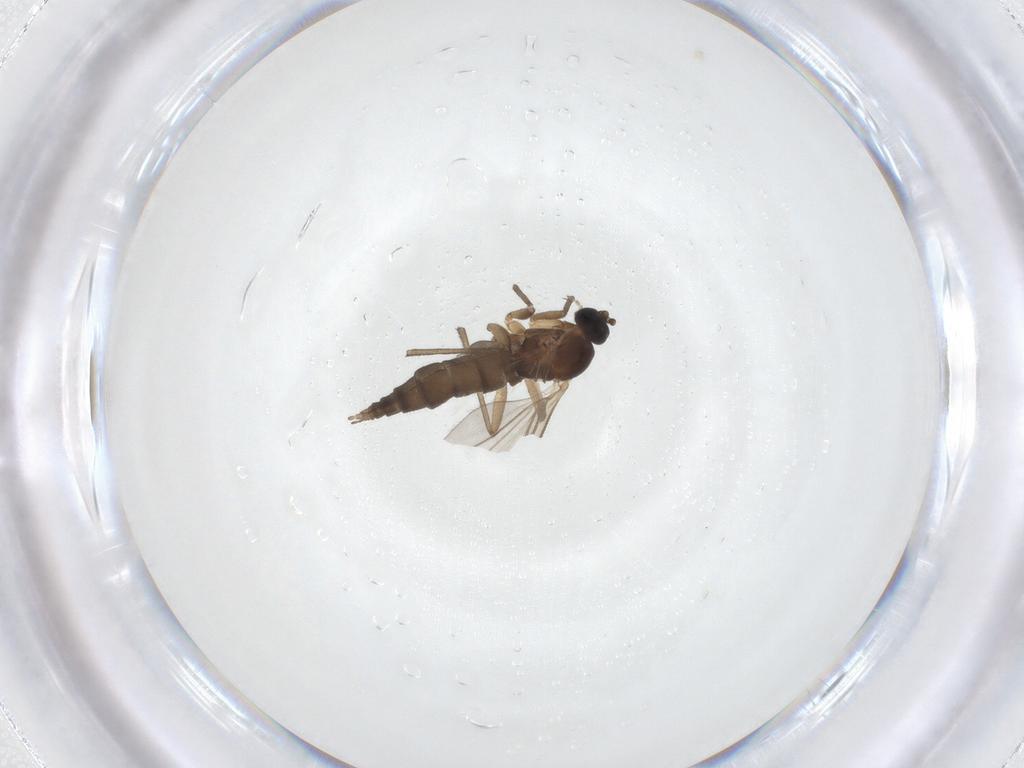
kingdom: Animalia
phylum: Arthropoda
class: Insecta
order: Diptera
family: Sciaridae
